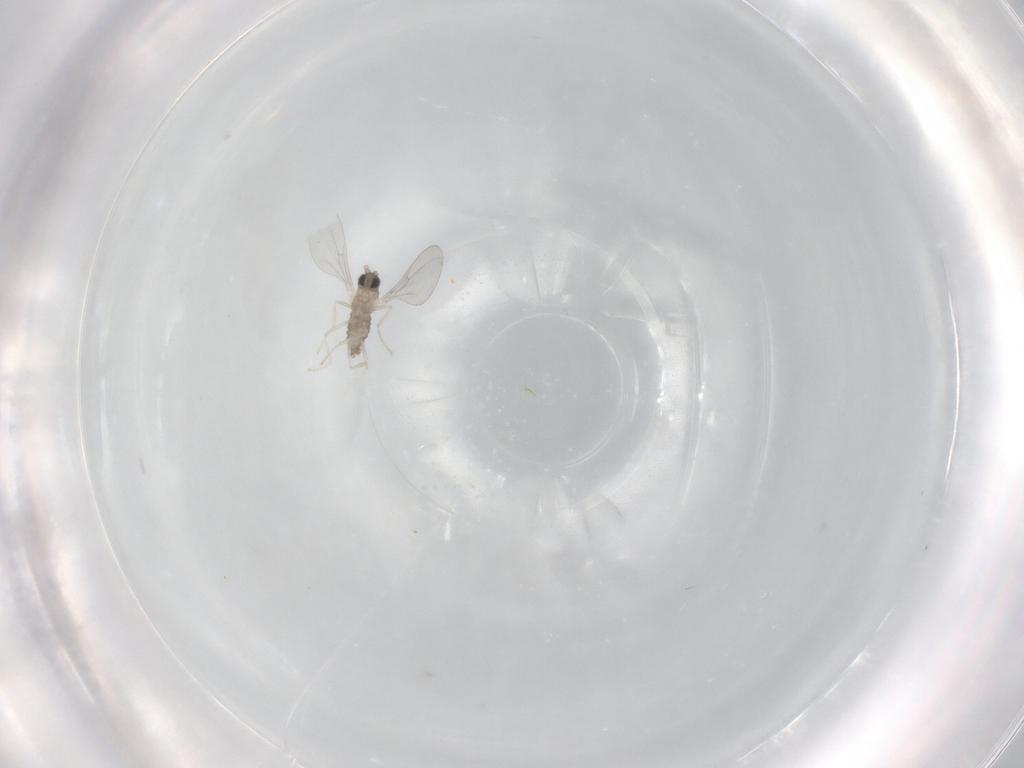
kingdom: Animalia
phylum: Arthropoda
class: Insecta
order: Diptera
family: Cecidomyiidae
